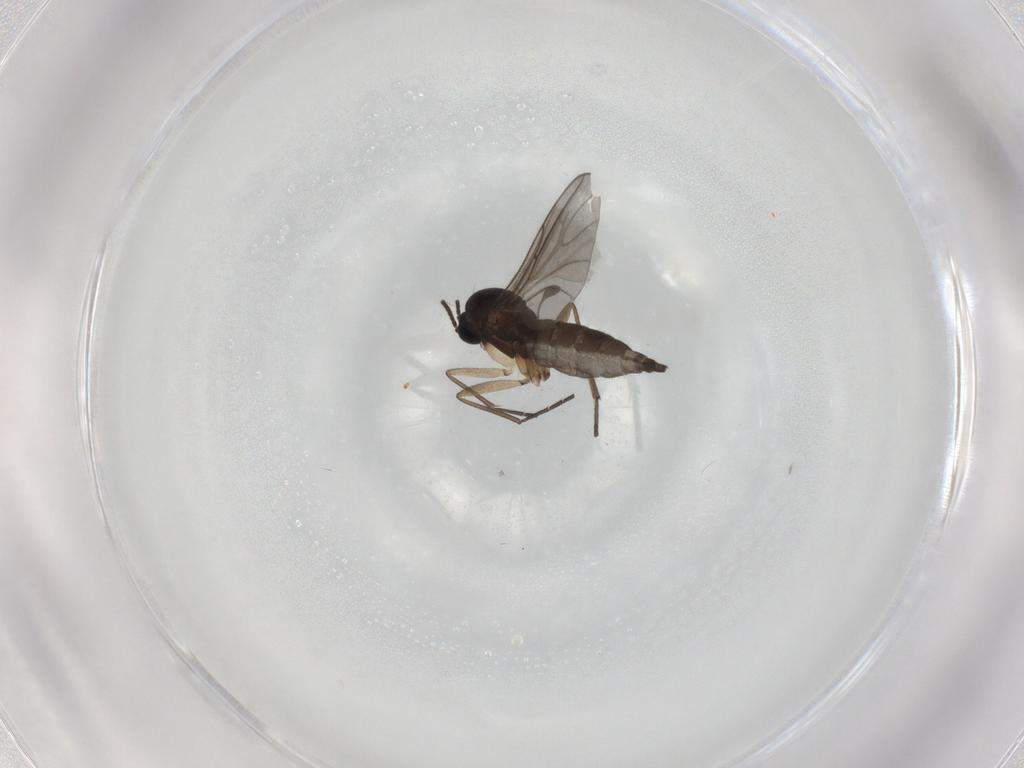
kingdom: Animalia
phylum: Arthropoda
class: Insecta
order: Diptera
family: Sciaridae
